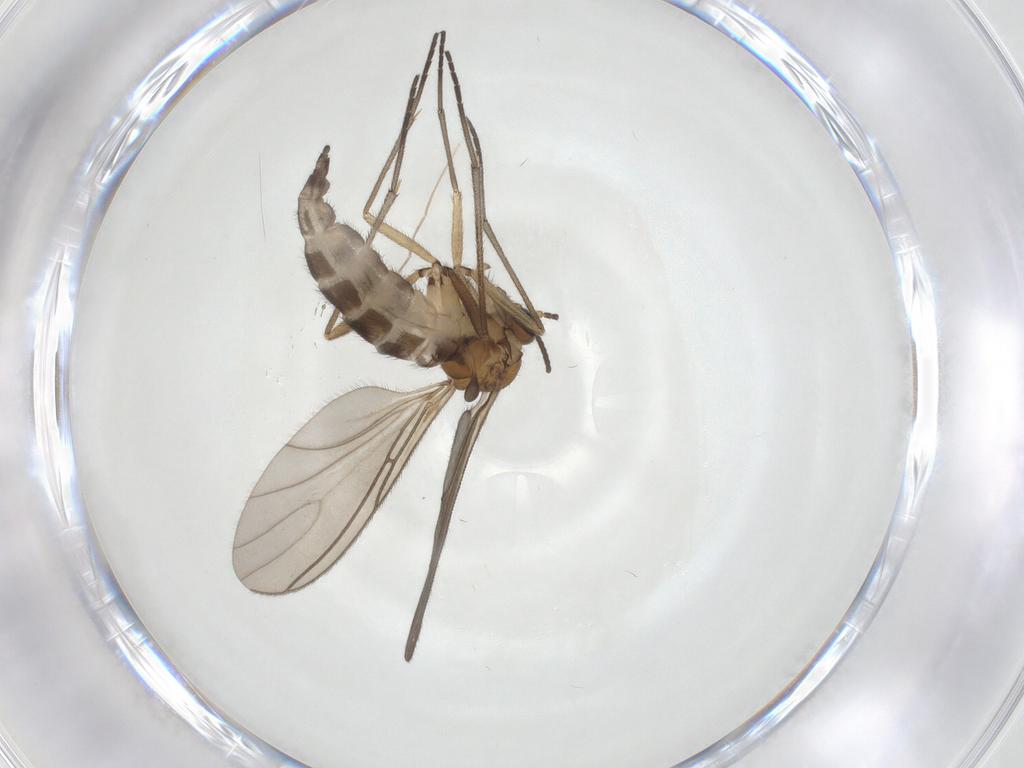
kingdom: Animalia
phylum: Arthropoda
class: Insecta
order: Diptera
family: Sciaridae
